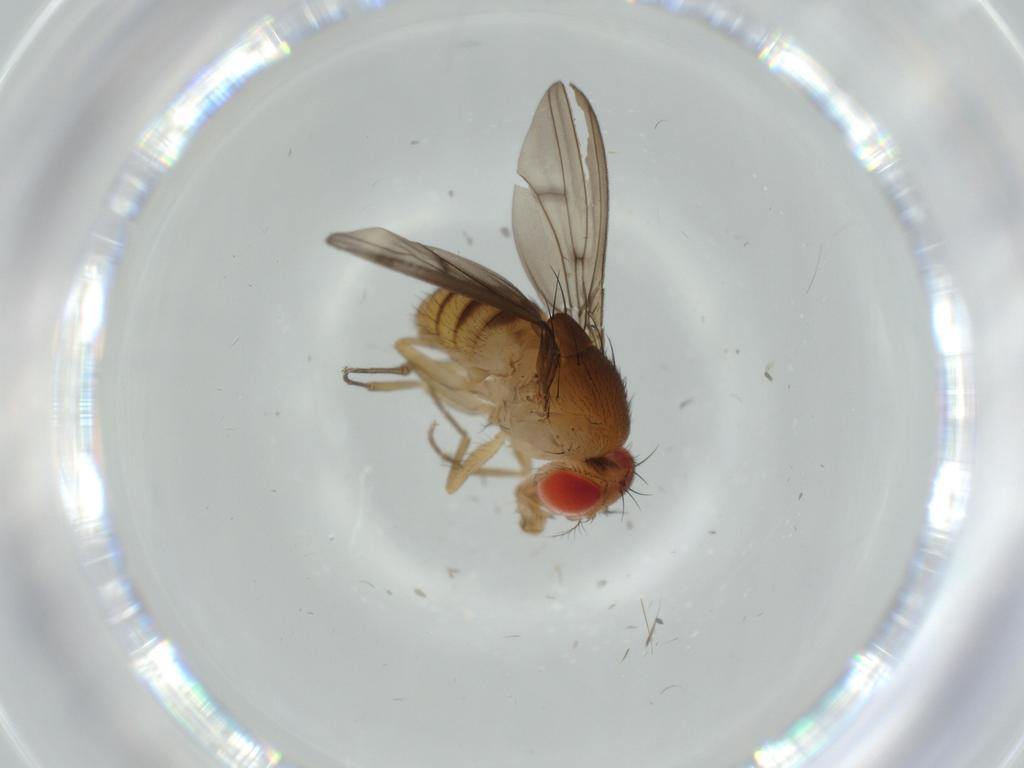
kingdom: Animalia
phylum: Arthropoda
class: Insecta
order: Diptera
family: Drosophilidae
